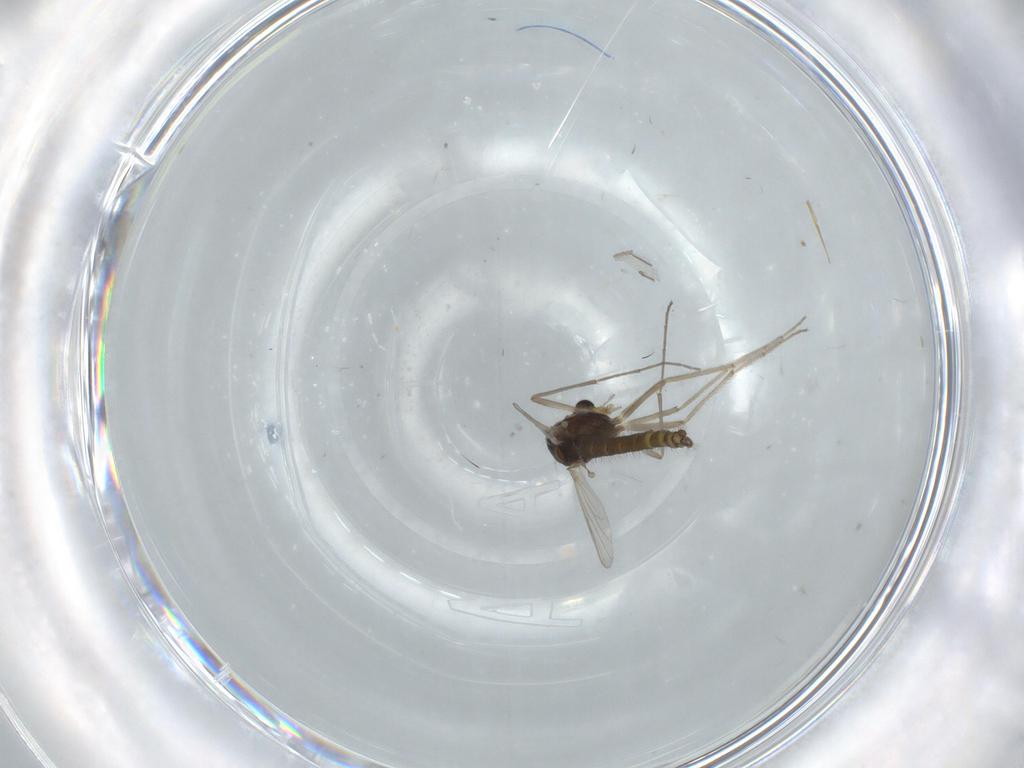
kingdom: Animalia
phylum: Arthropoda
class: Insecta
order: Diptera
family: Chironomidae
